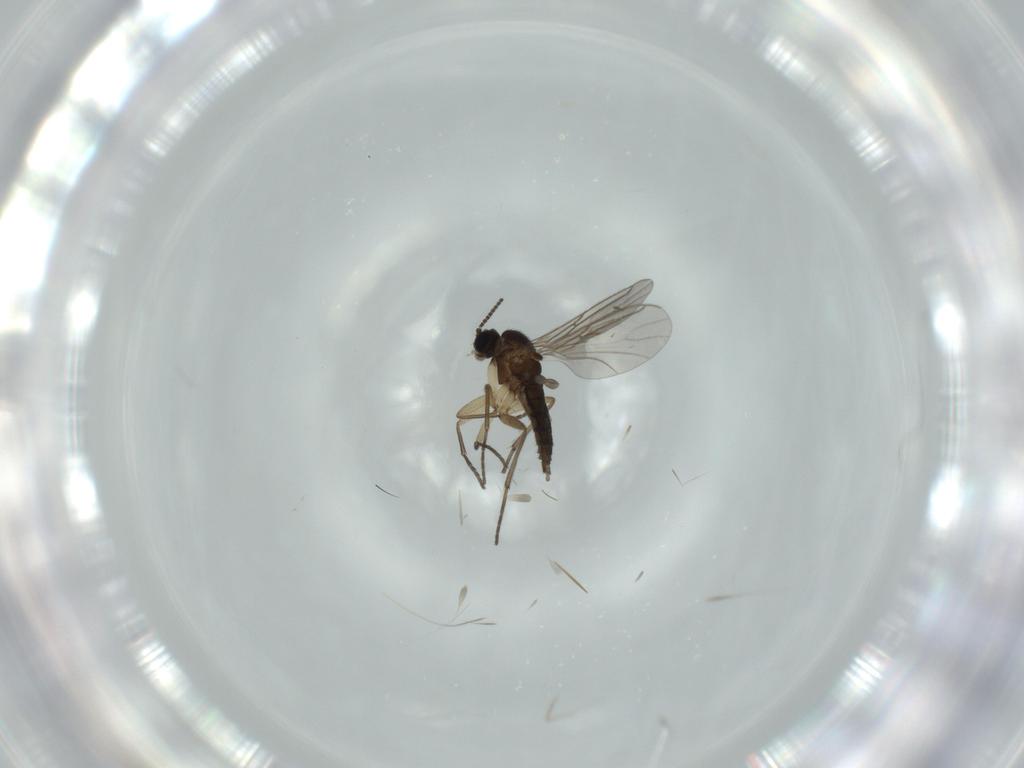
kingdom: Animalia
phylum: Arthropoda
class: Insecta
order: Diptera
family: Sciaridae
